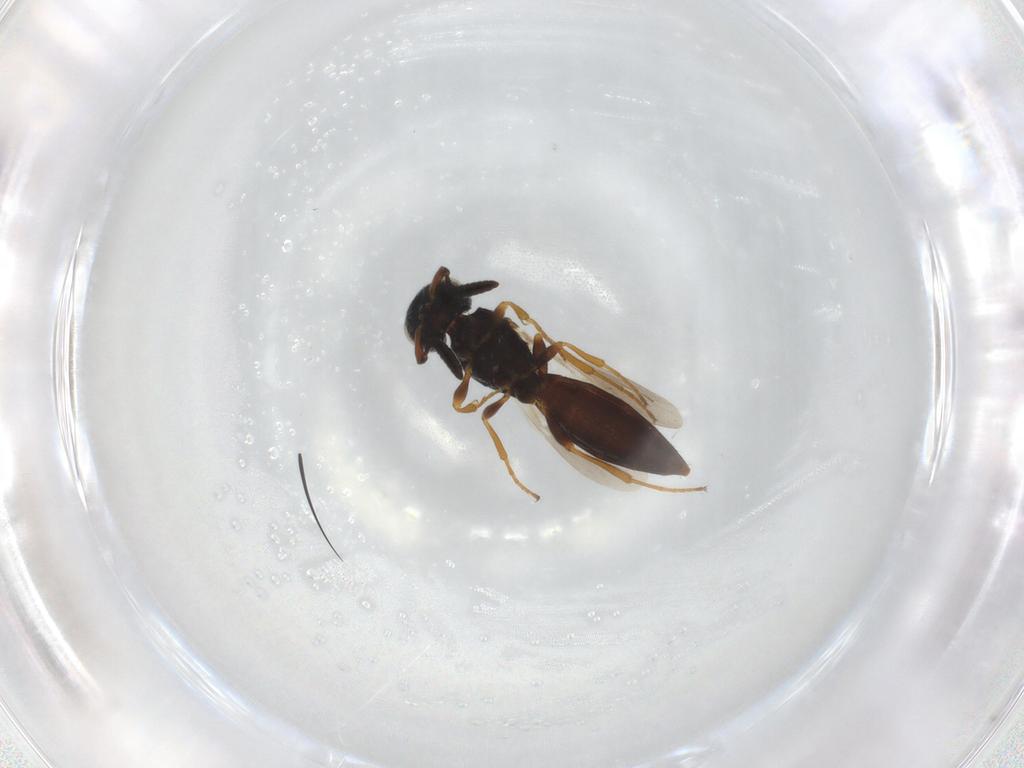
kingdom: Animalia
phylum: Arthropoda
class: Insecta
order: Hymenoptera
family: Scelionidae
